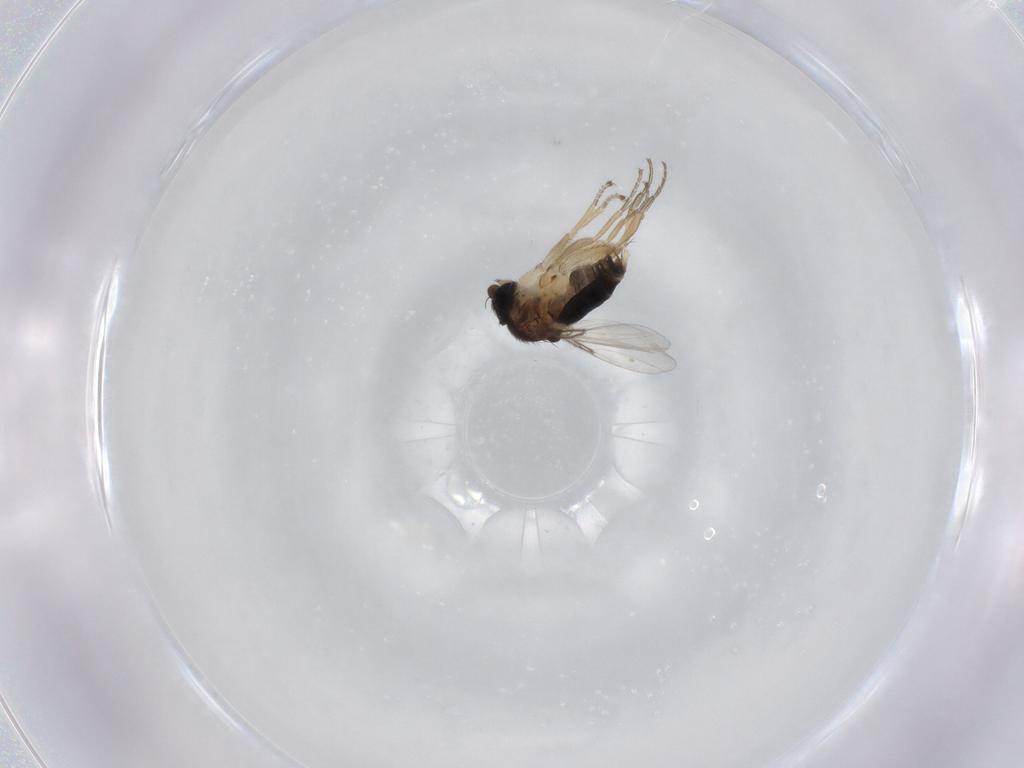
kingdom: Animalia
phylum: Arthropoda
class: Insecta
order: Diptera
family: Phoridae
